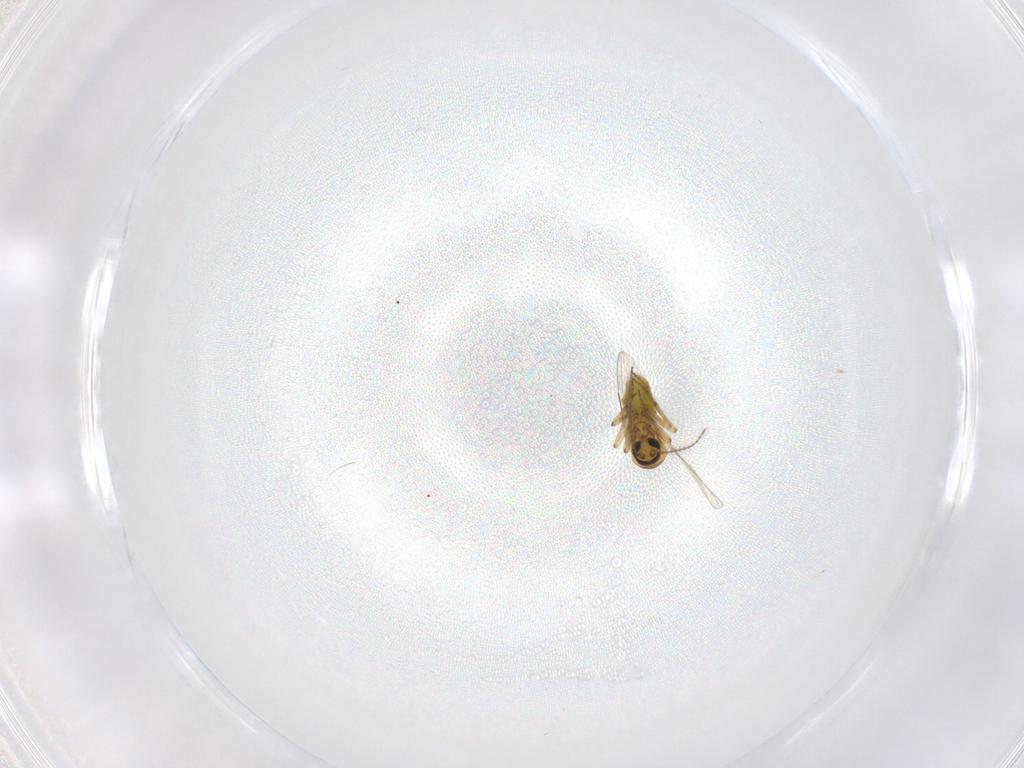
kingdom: Animalia
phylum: Arthropoda
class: Insecta
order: Diptera
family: Ceratopogonidae
